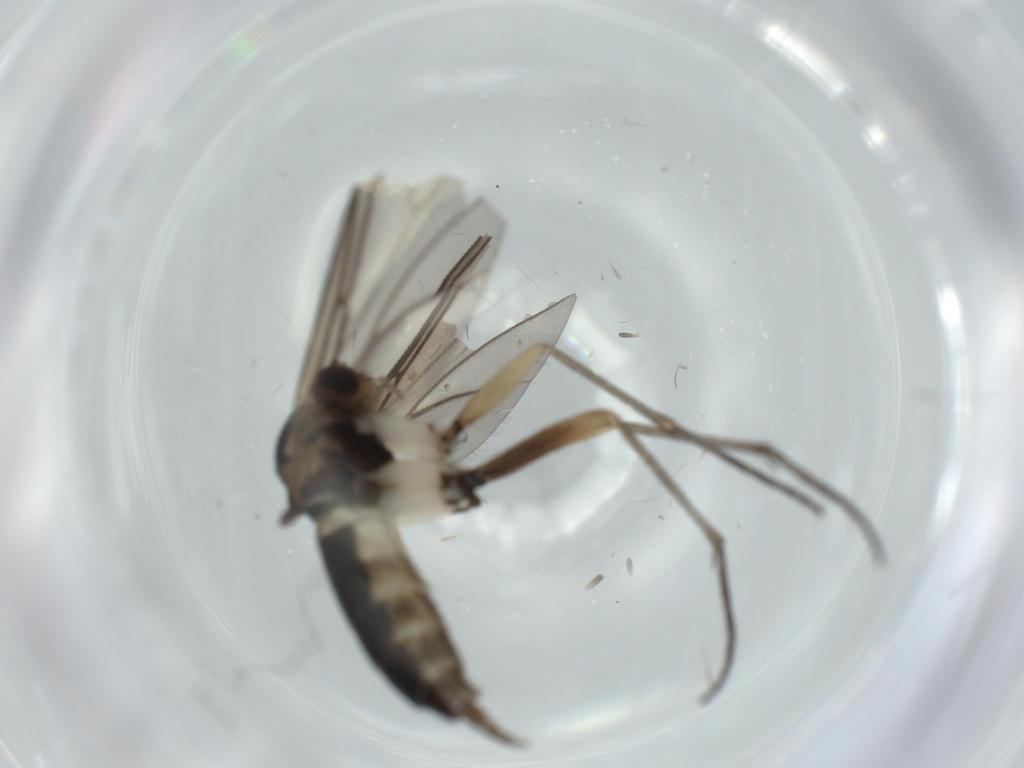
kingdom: Animalia
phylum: Arthropoda
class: Insecta
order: Diptera
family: Sciaridae
